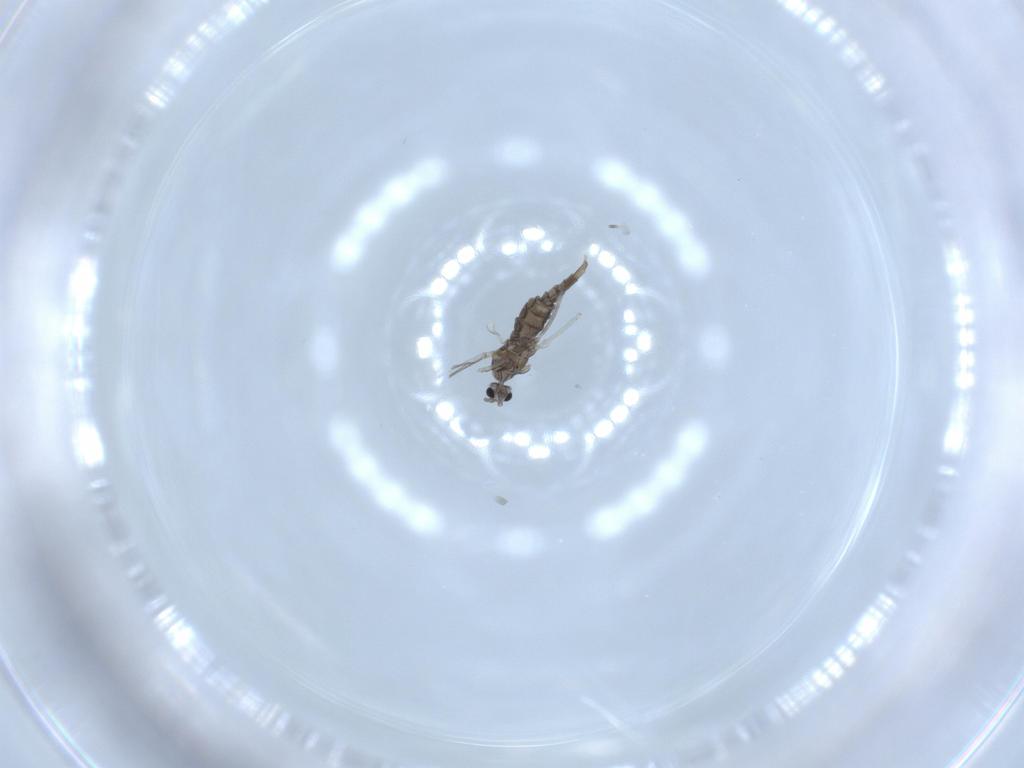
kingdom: Animalia
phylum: Arthropoda
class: Insecta
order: Diptera
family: Cecidomyiidae
